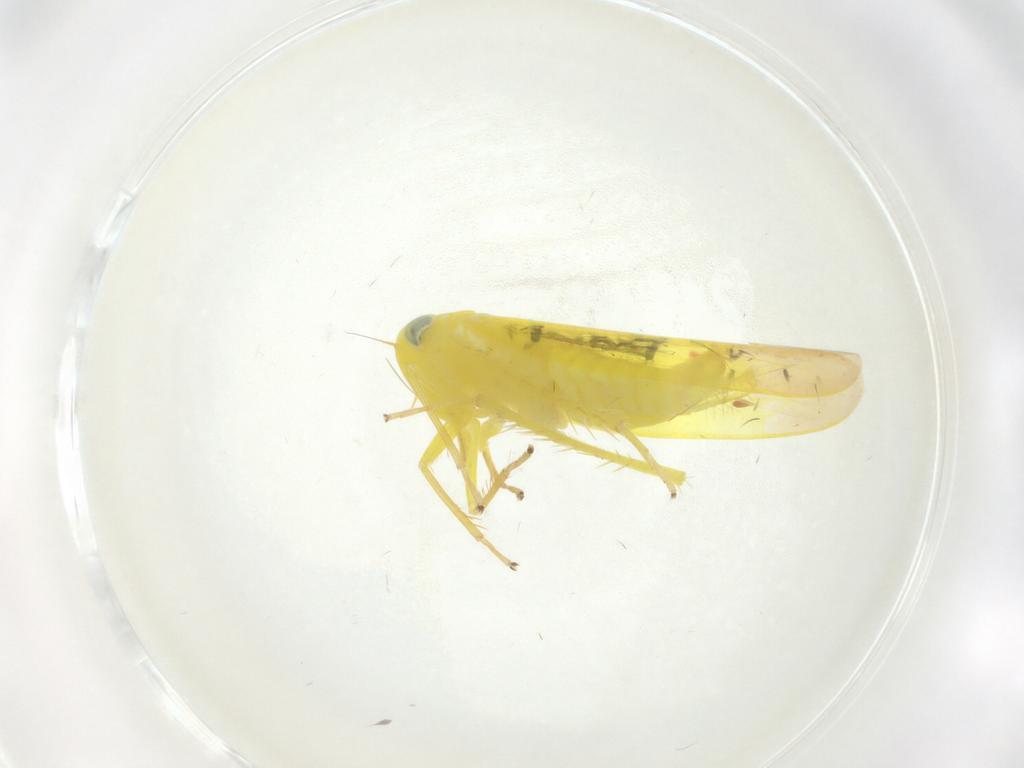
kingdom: Animalia
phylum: Arthropoda
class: Insecta
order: Hemiptera
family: Cicadellidae
